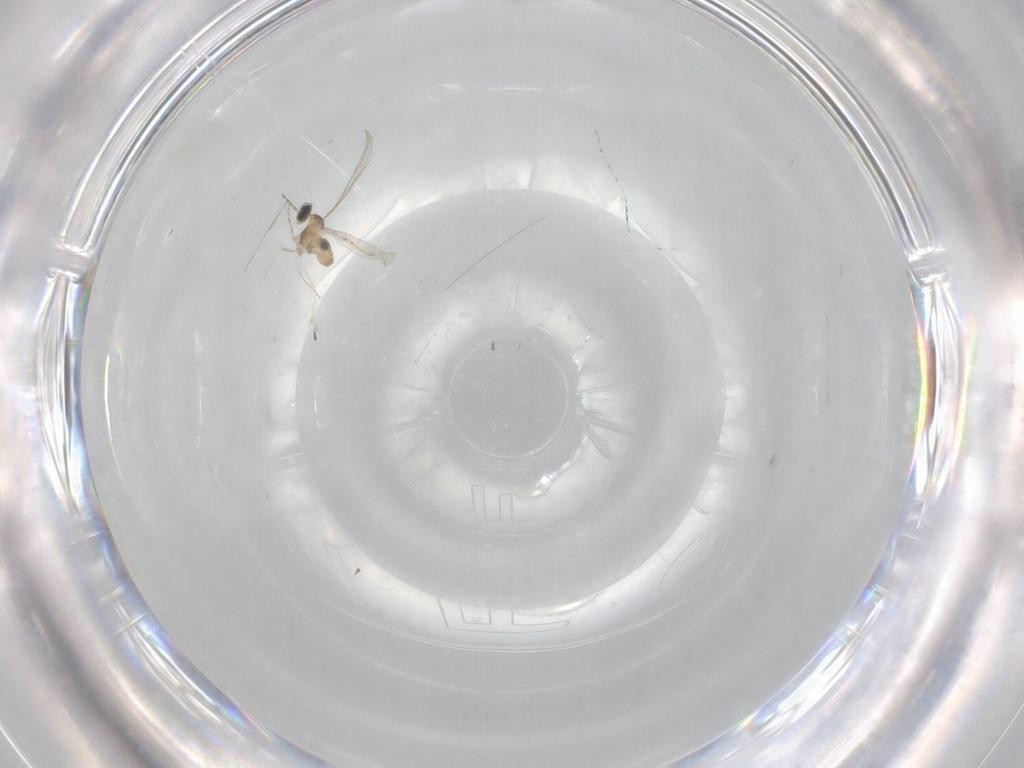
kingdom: Animalia
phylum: Arthropoda
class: Insecta
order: Diptera
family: Cecidomyiidae
